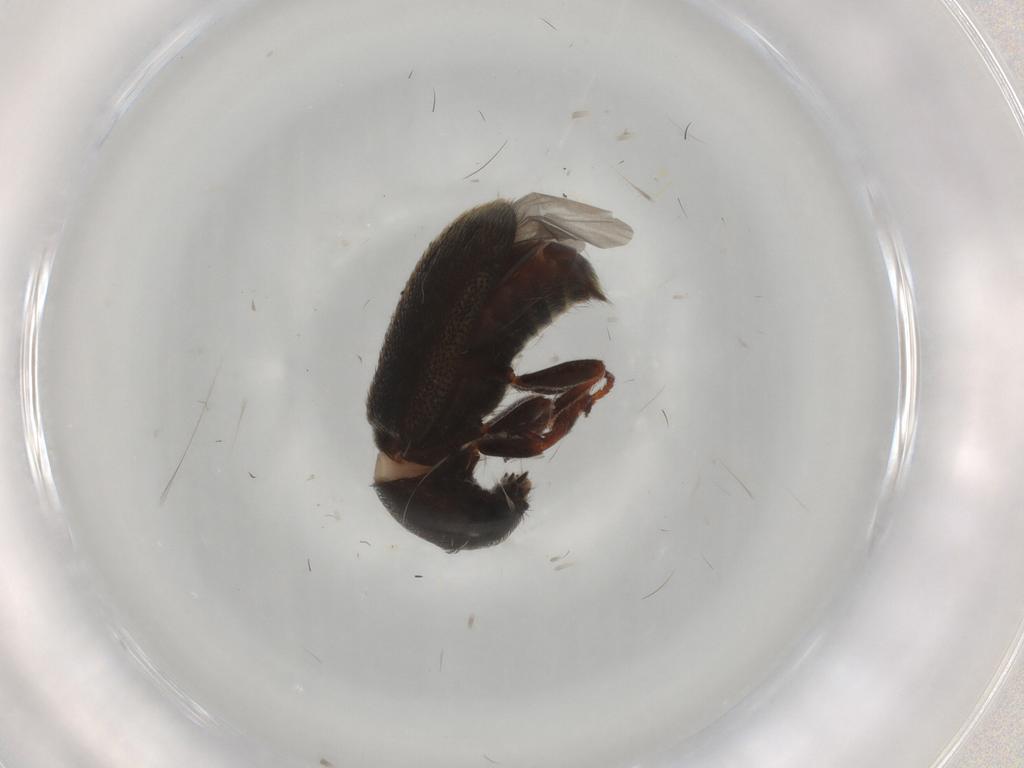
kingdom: Animalia
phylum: Arthropoda
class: Insecta
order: Coleoptera
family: Melyridae
